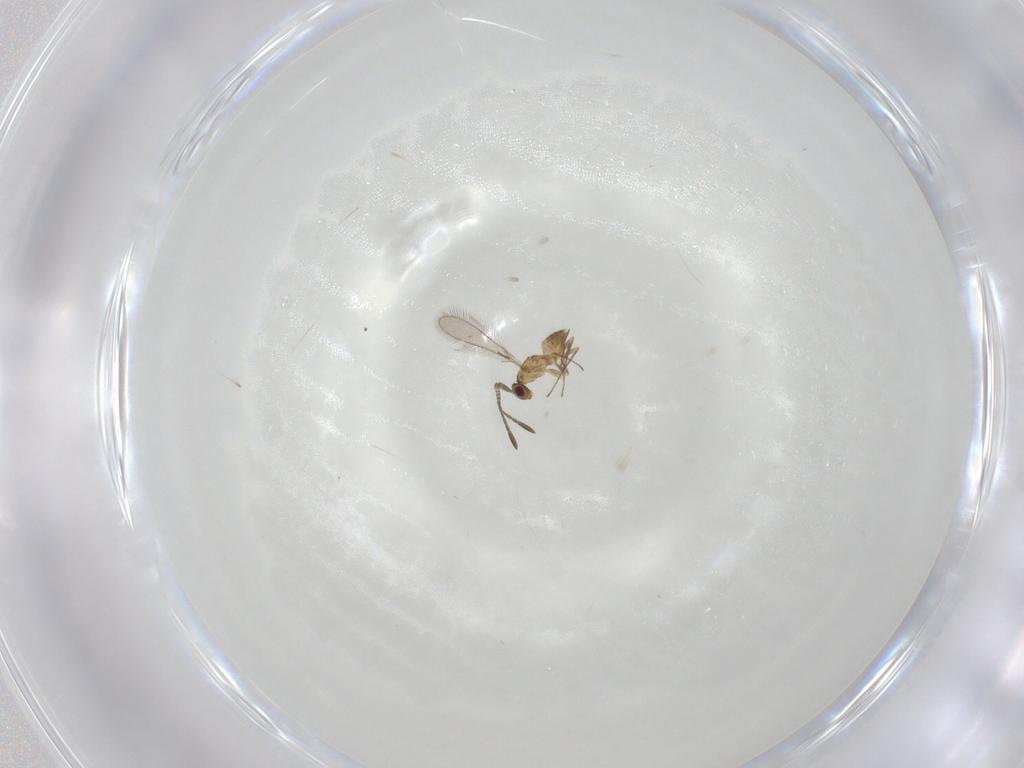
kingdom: Animalia
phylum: Arthropoda
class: Insecta
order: Hymenoptera
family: Mymaridae
